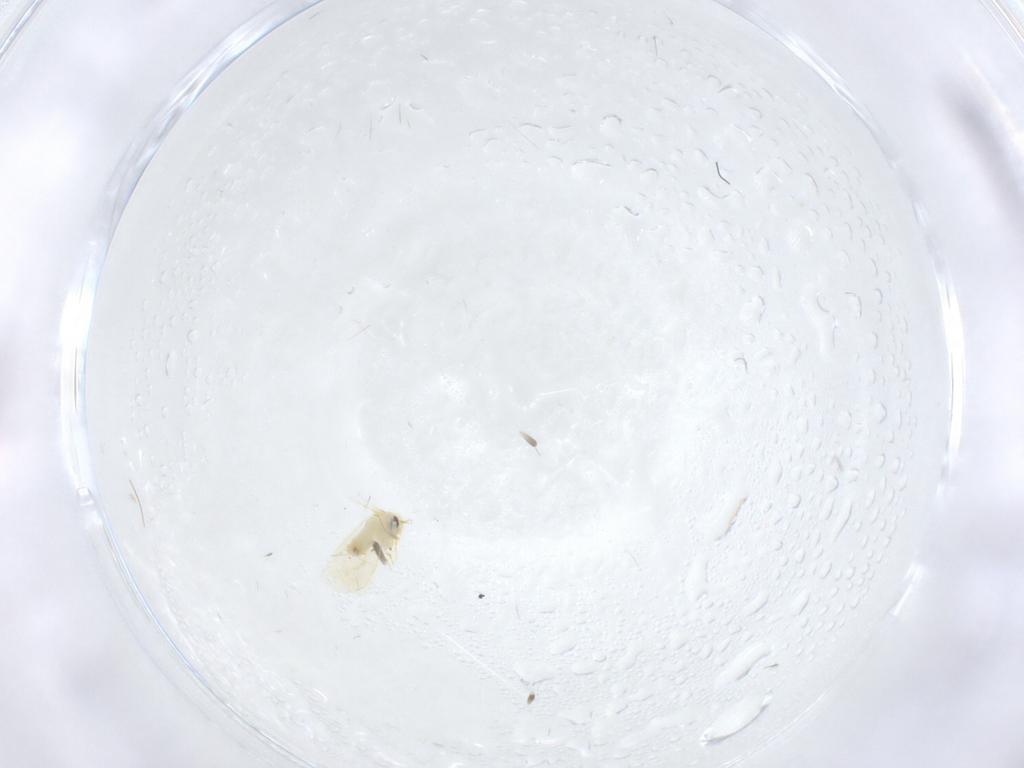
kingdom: Animalia
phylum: Arthropoda
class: Insecta
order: Hemiptera
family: Aleyrodidae
